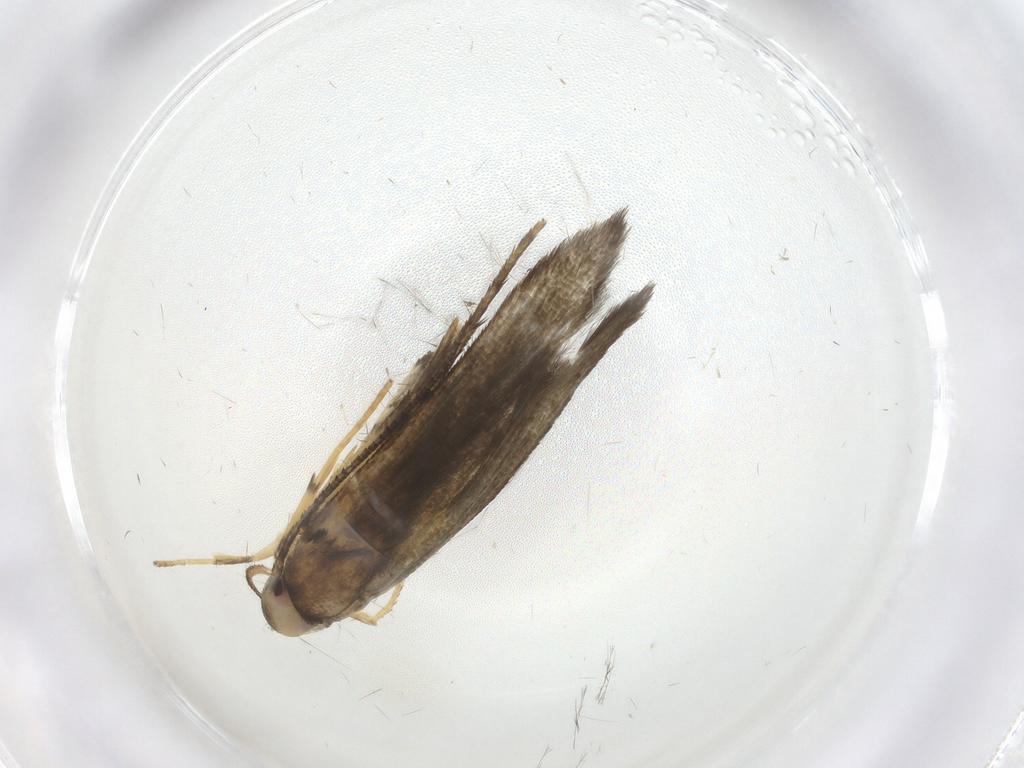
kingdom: Animalia
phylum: Arthropoda
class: Insecta
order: Lepidoptera
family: Stathmopodidae
